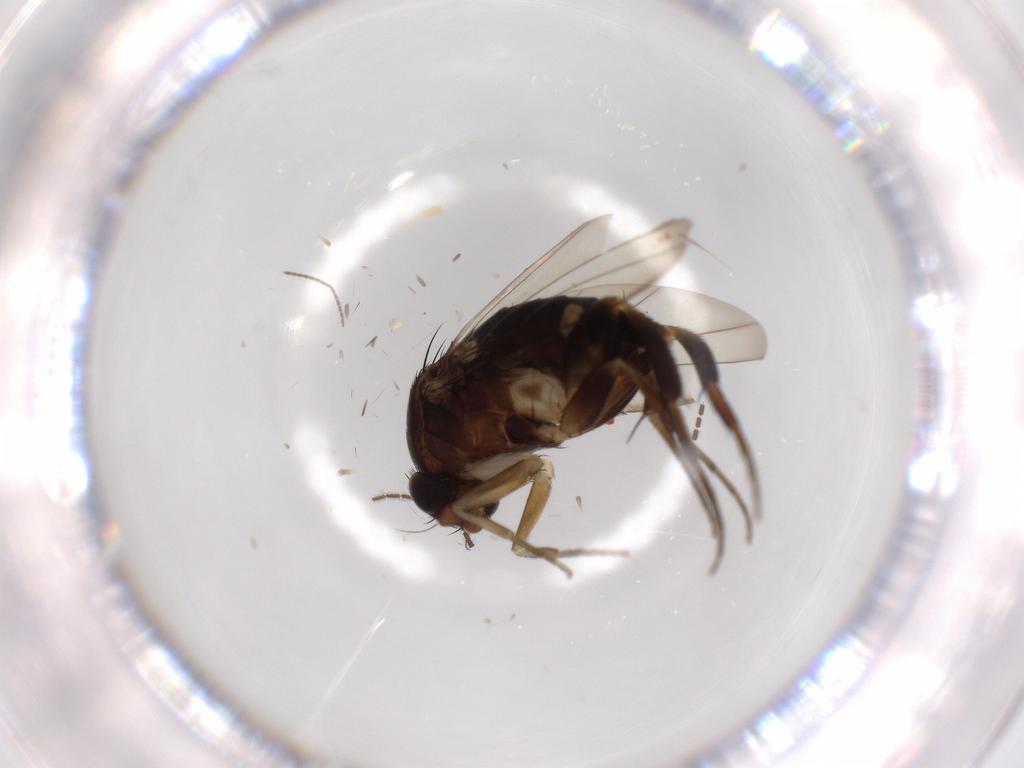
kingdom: Animalia
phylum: Arthropoda
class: Insecta
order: Diptera
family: Phoridae
